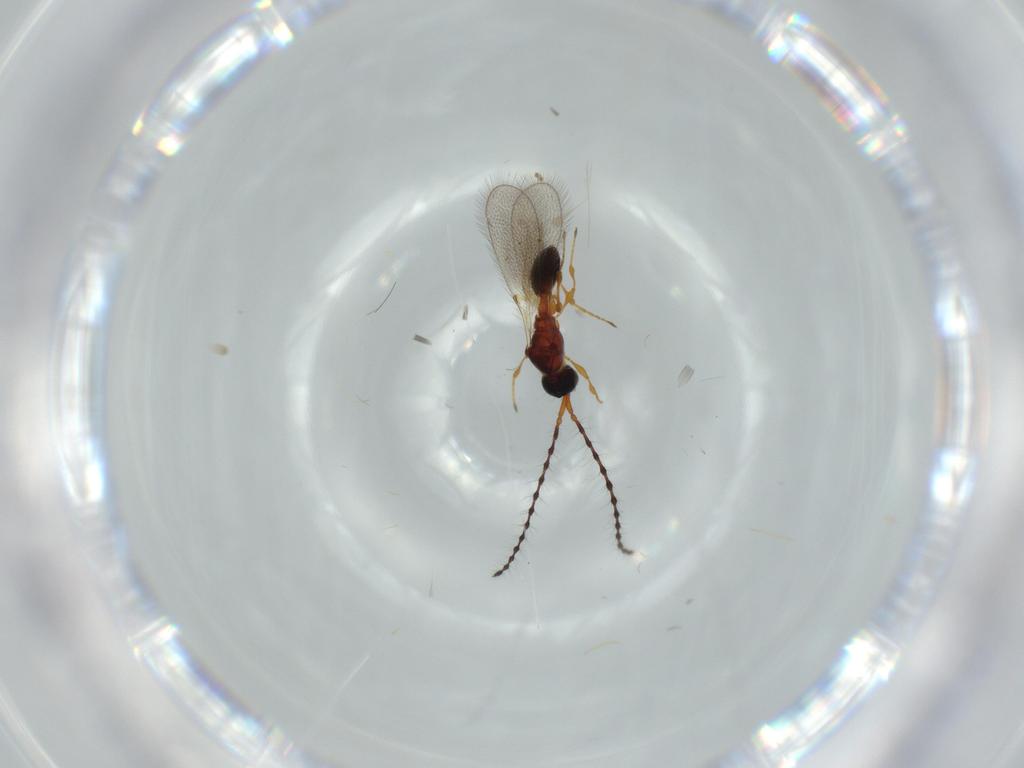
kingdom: Animalia
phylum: Arthropoda
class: Insecta
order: Hymenoptera
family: Diapriidae
